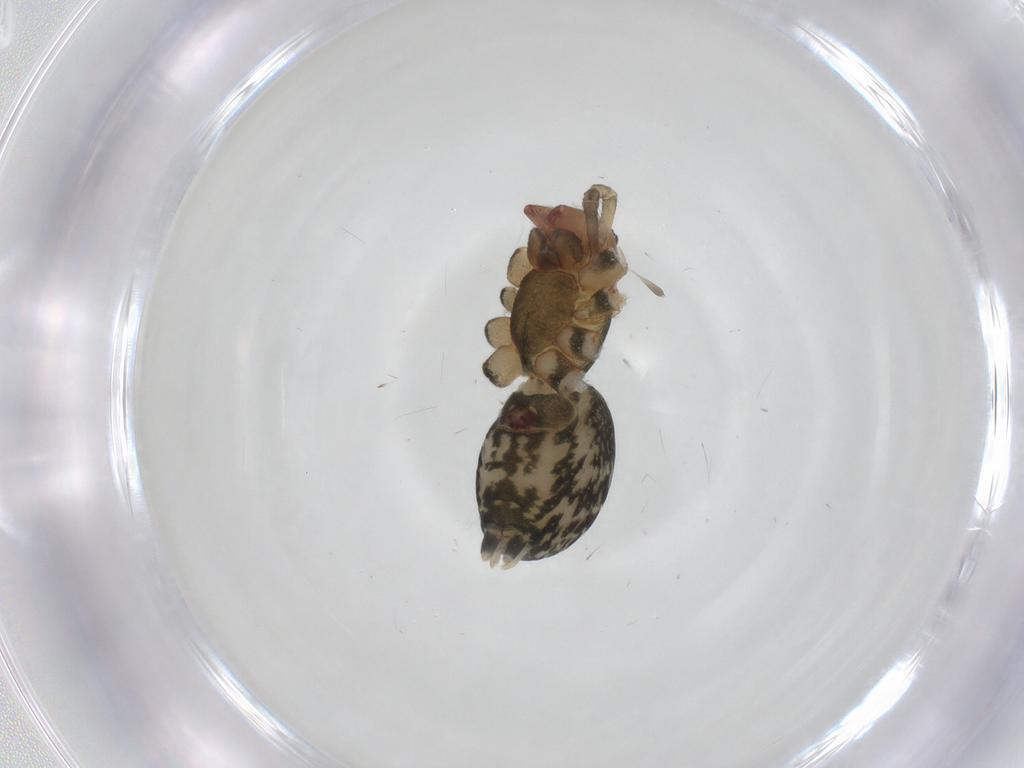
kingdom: Animalia
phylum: Arthropoda
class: Arachnida
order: Araneae
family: Dictynidae
